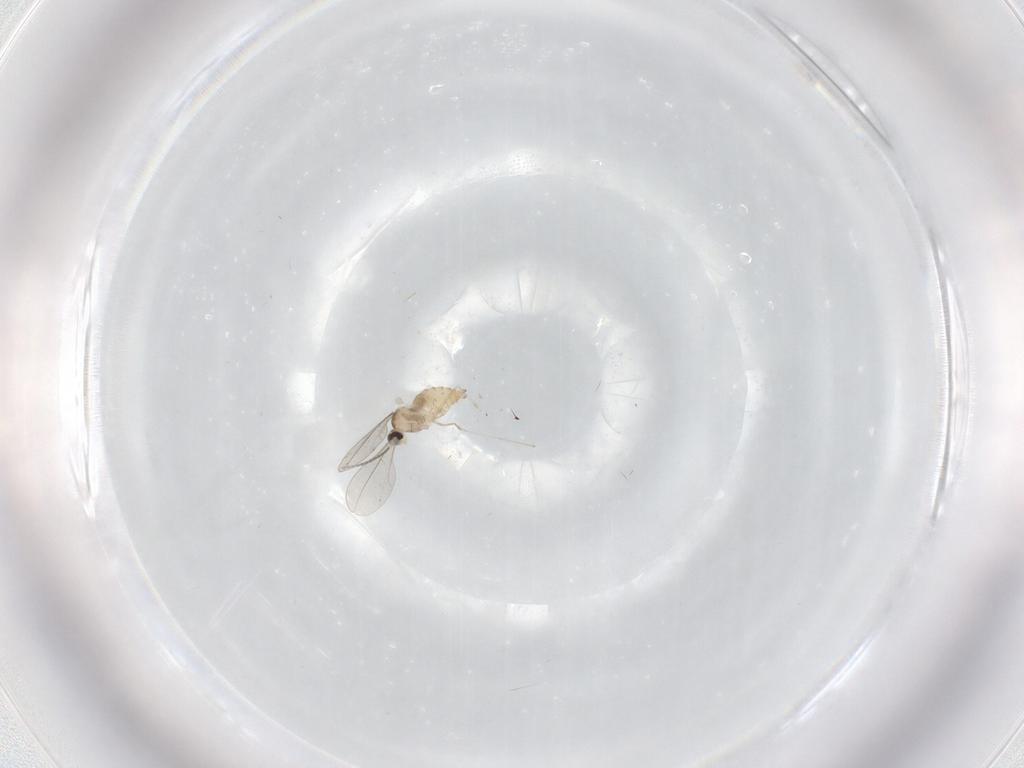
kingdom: Animalia
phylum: Arthropoda
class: Insecta
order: Diptera
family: Cecidomyiidae
